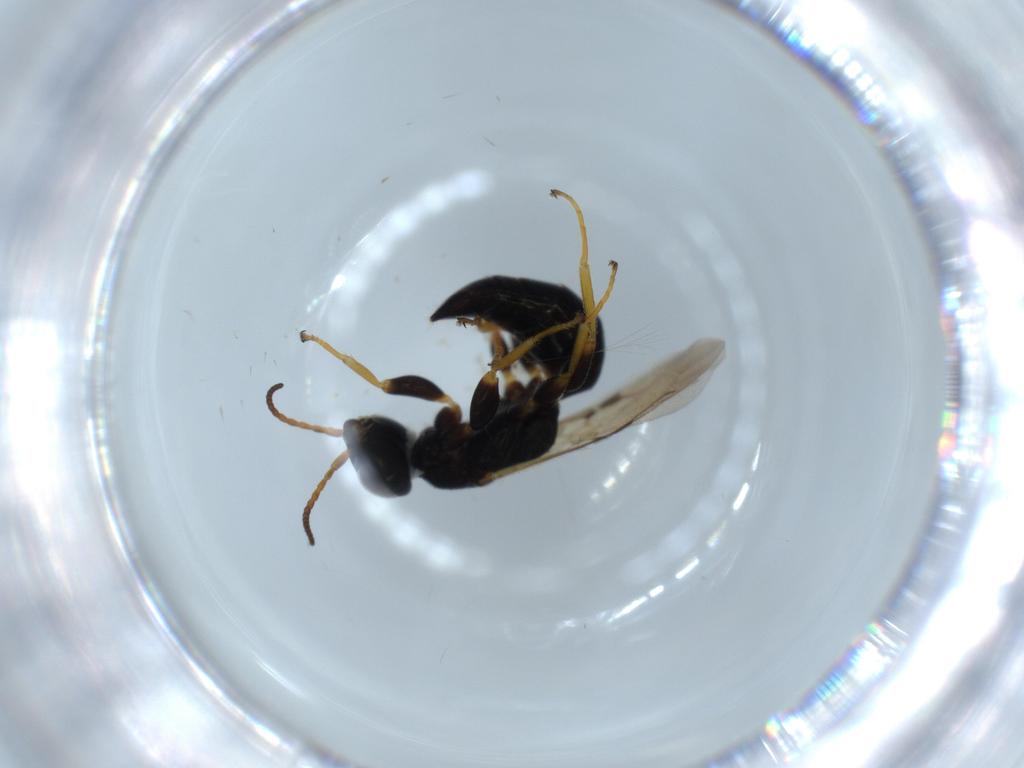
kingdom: Animalia
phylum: Arthropoda
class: Insecta
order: Hymenoptera
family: Bethylidae
